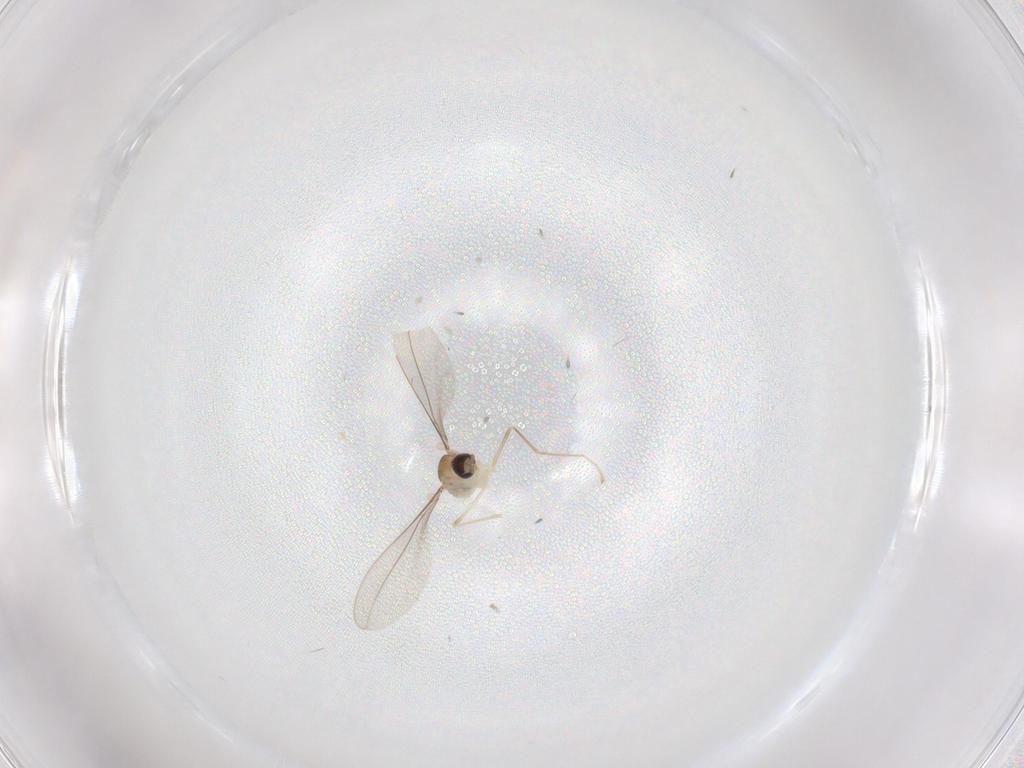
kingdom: Animalia
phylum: Arthropoda
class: Insecta
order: Diptera
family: Cecidomyiidae
